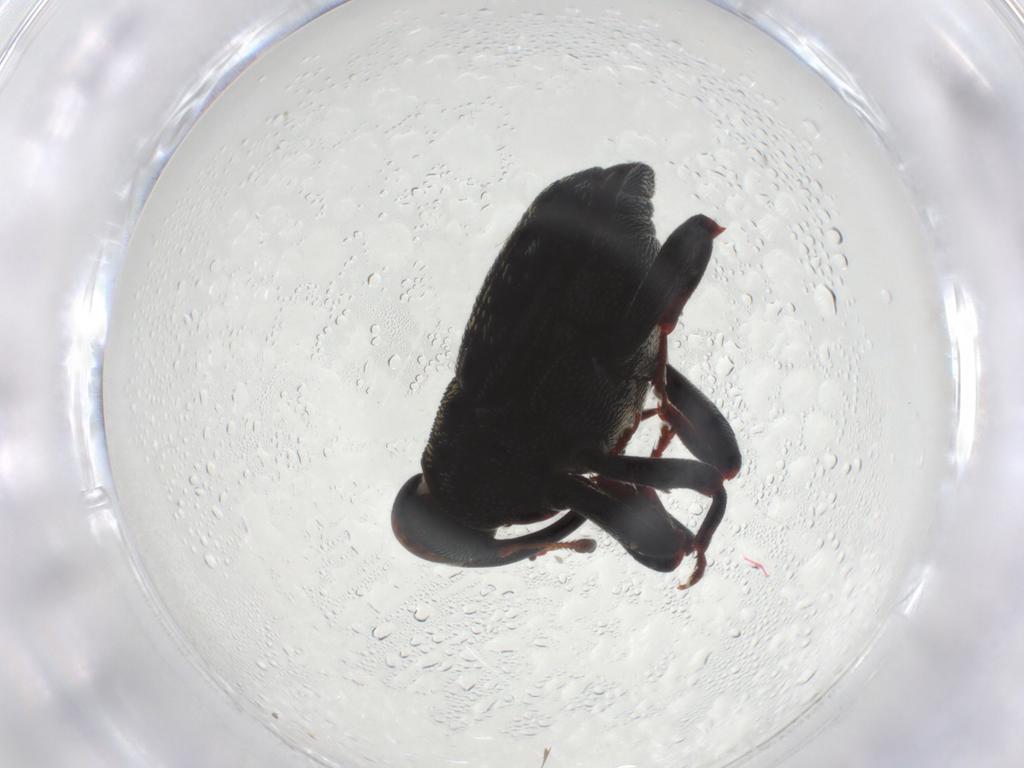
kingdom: Animalia
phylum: Arthropoda
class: Insecta
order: Coleoptera
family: Curculionidae
